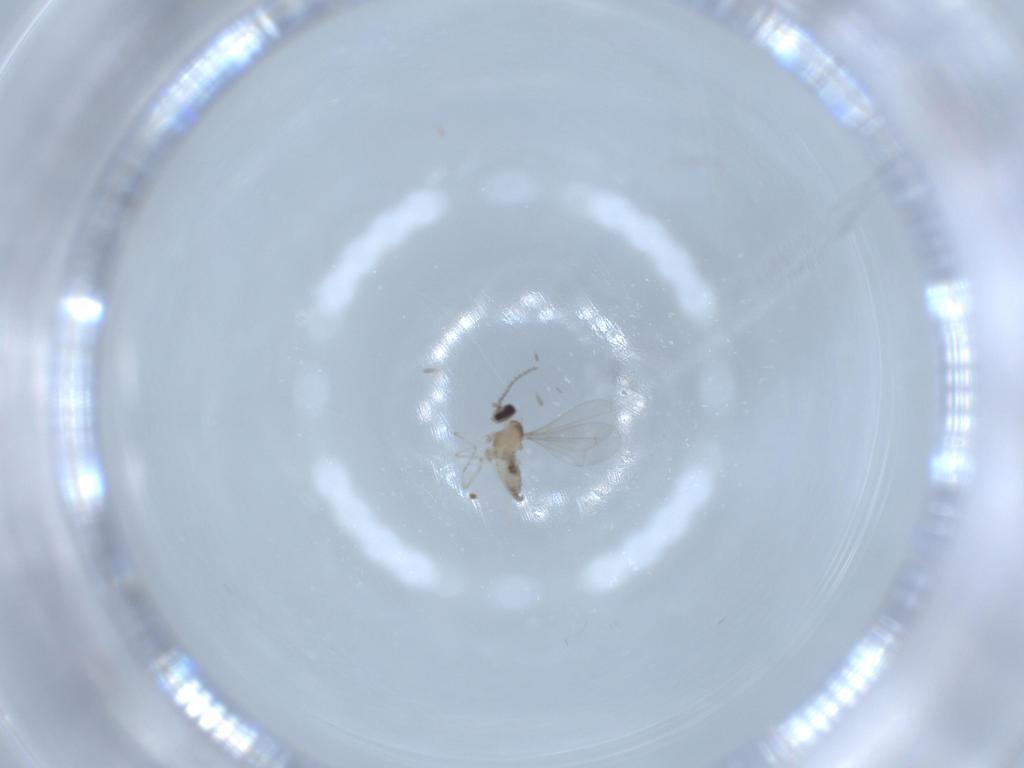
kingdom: Animalia
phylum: Arthropoda
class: Insecta
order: Diptera
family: Cecidomyiidae
